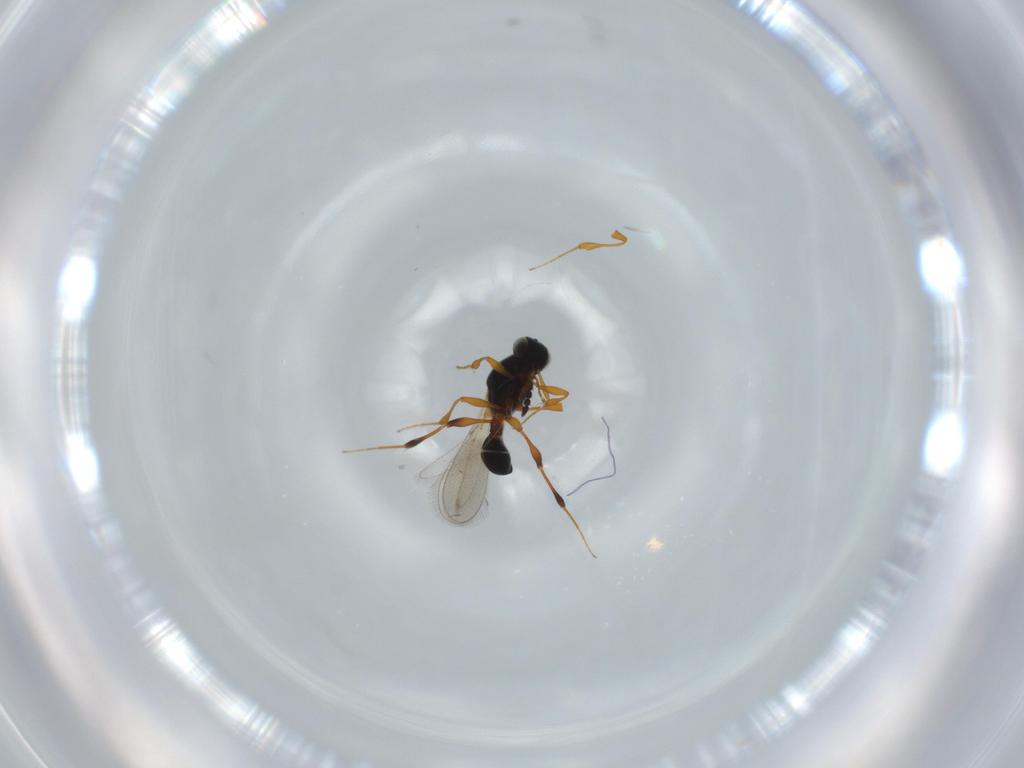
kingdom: Animalia
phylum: Arthropoda
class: Insecta
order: Hymenoptera
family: Platygastridae
